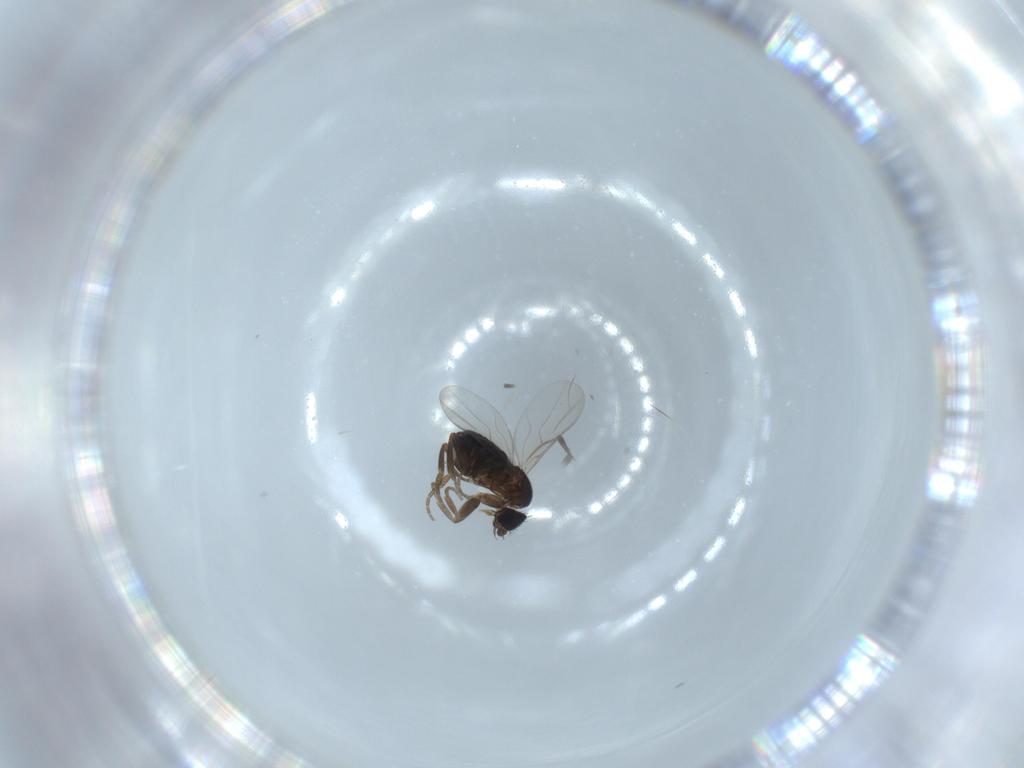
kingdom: Animalia
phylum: Arthropoda
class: Insecta
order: Diptera
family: Phoridae
